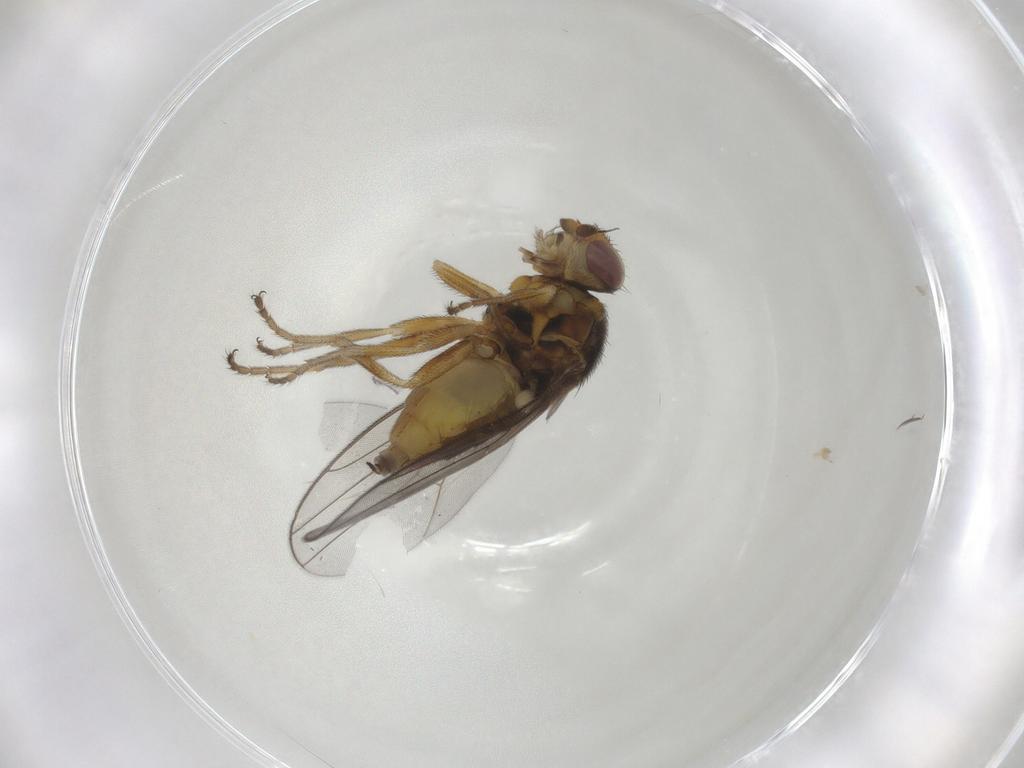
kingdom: Animalia
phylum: Arthropoda
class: Insecta
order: Diptera
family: Chloropidae
